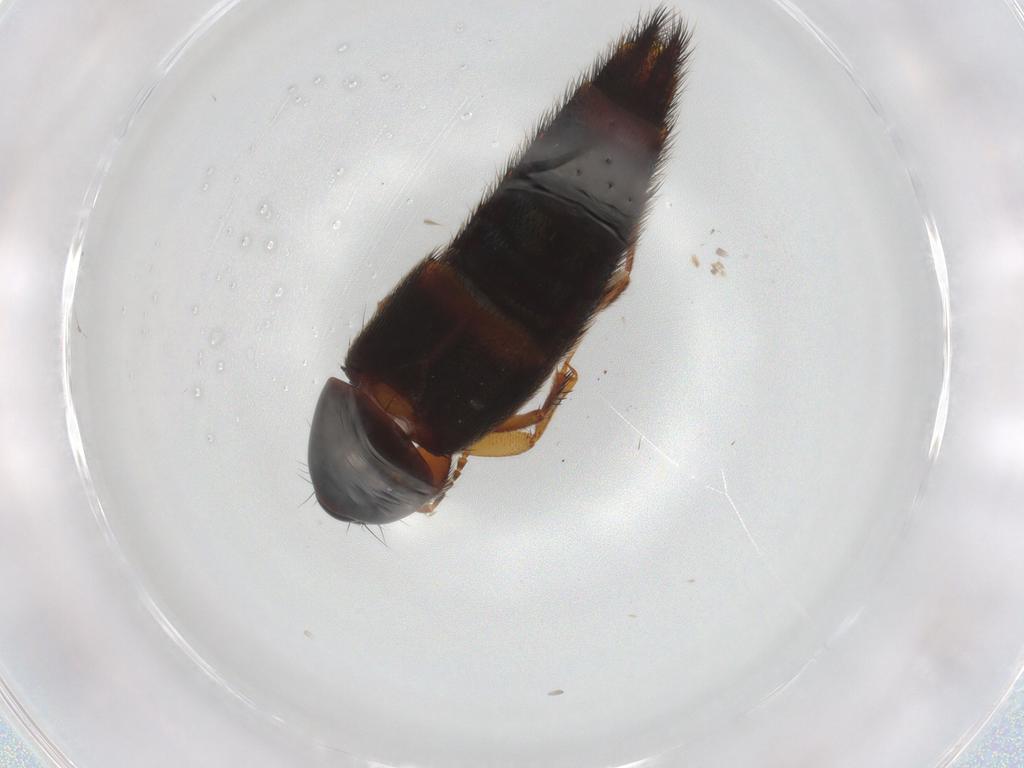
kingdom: Animalia
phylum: Arthropoda
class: Insecta
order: Coleoptera
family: Staphylinidae
